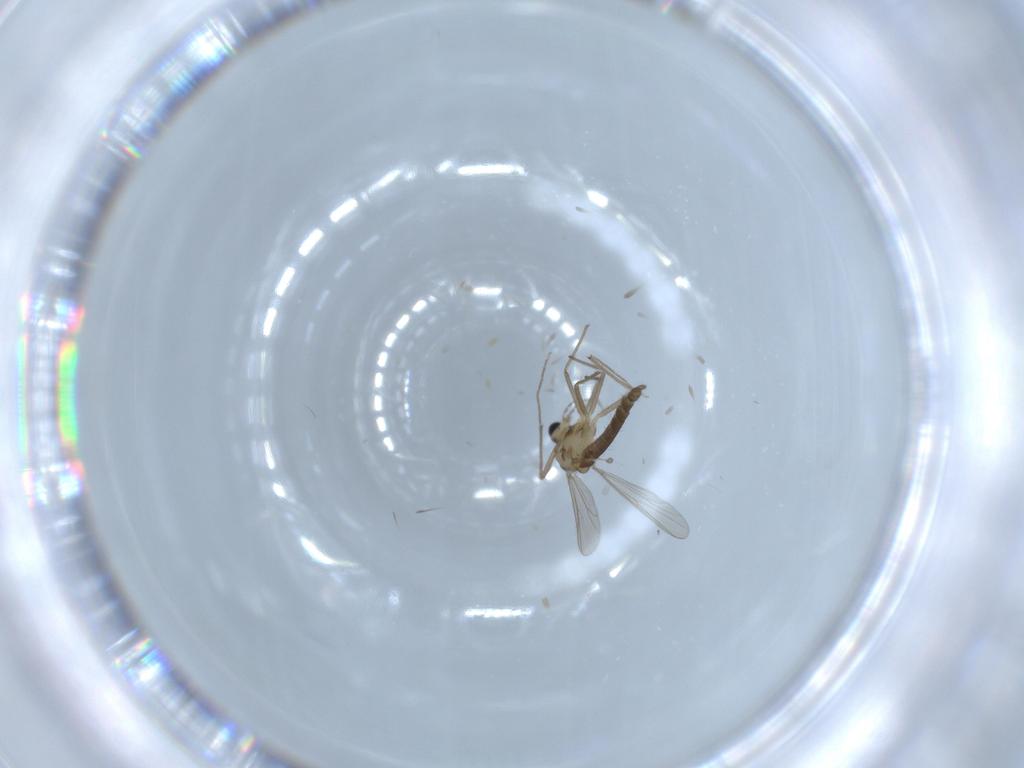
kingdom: Animalia
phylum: Arthropoda
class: Insecta
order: Diptera
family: Chironomidae
